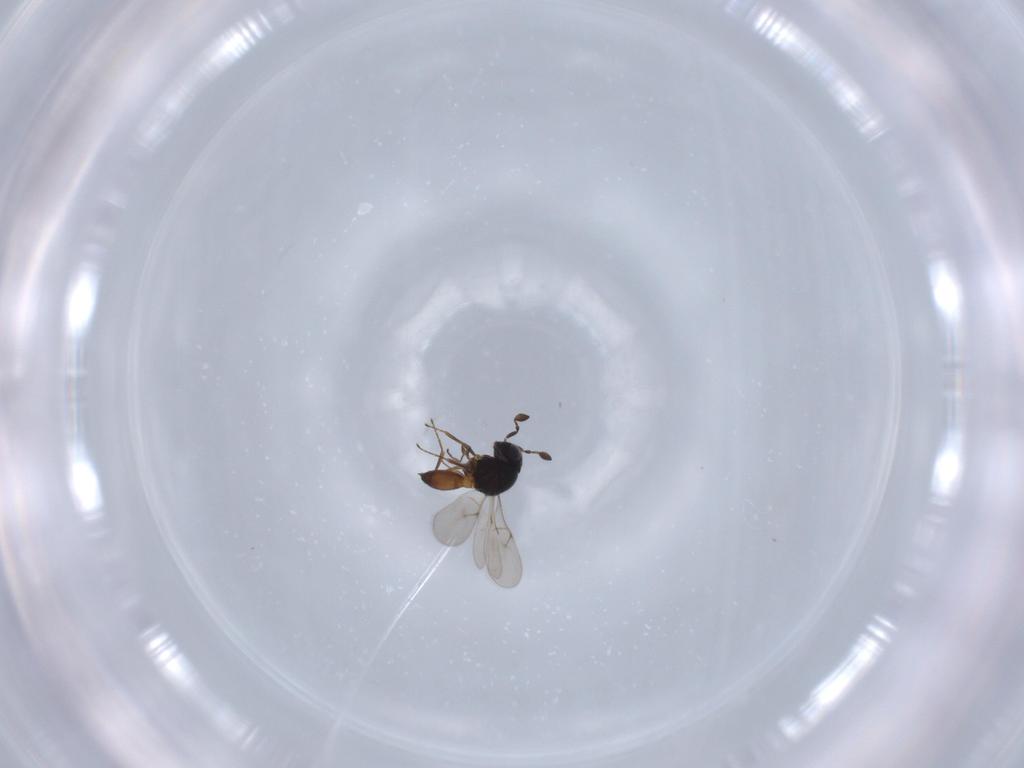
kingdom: Animalia
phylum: Arthropoda
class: Insecta
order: Hymenoptera
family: Scelionidae
